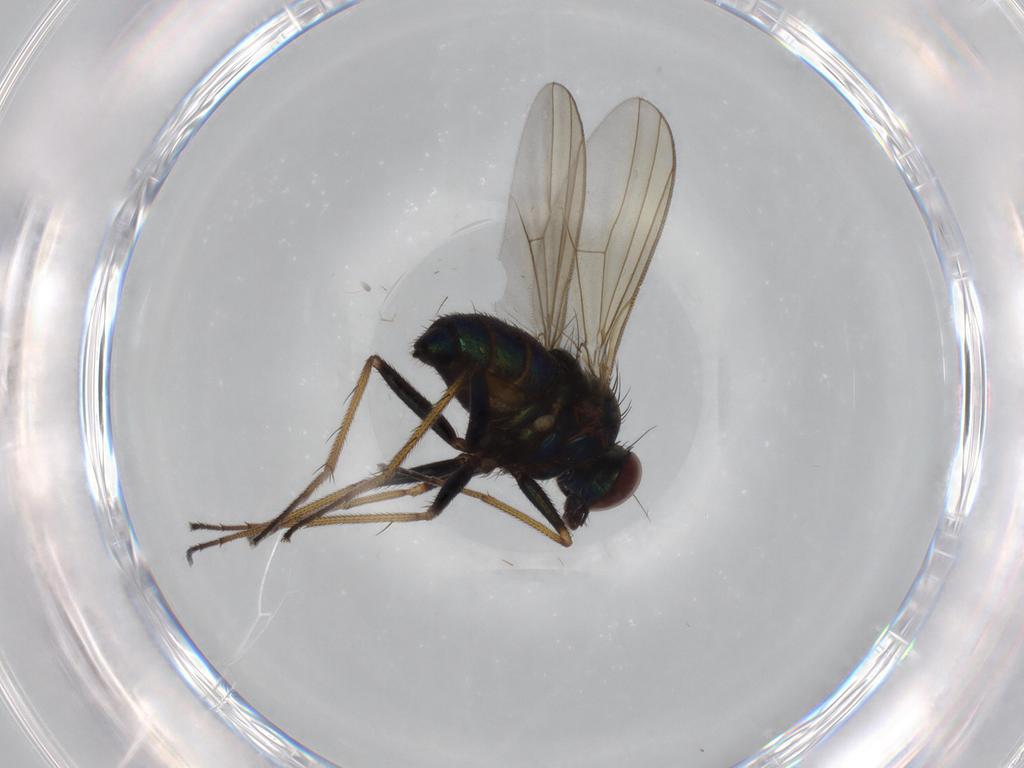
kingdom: Animalia
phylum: Arthropoda
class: Insecta
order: Diptera
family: Dolichopodidae
